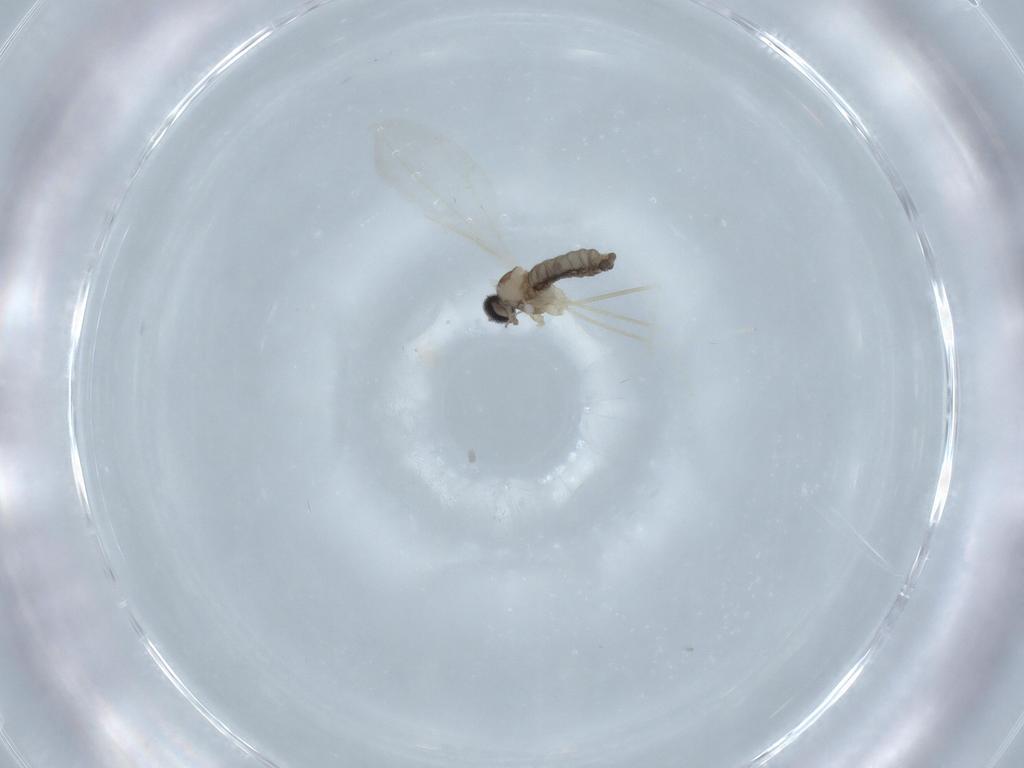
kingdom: Animalia
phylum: Arthropoda
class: Insecta
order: Diptera
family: Cecidomyiidae
